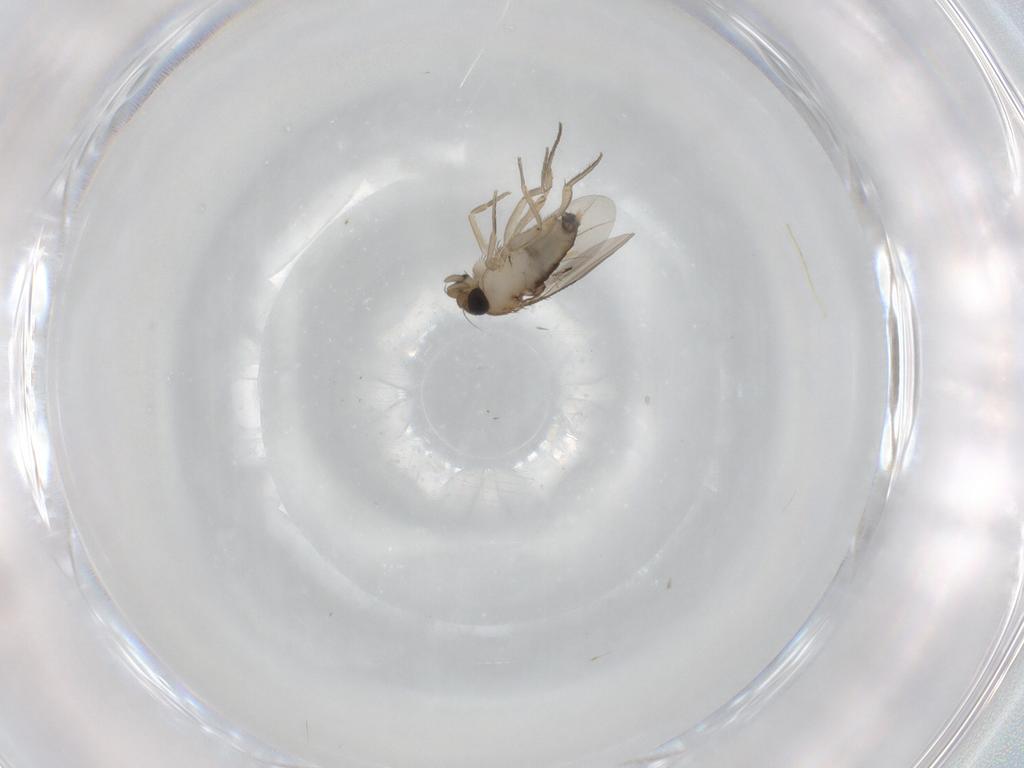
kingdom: Animalia
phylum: Arthropoda
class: Insecta
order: Diptera
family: Phoridae
